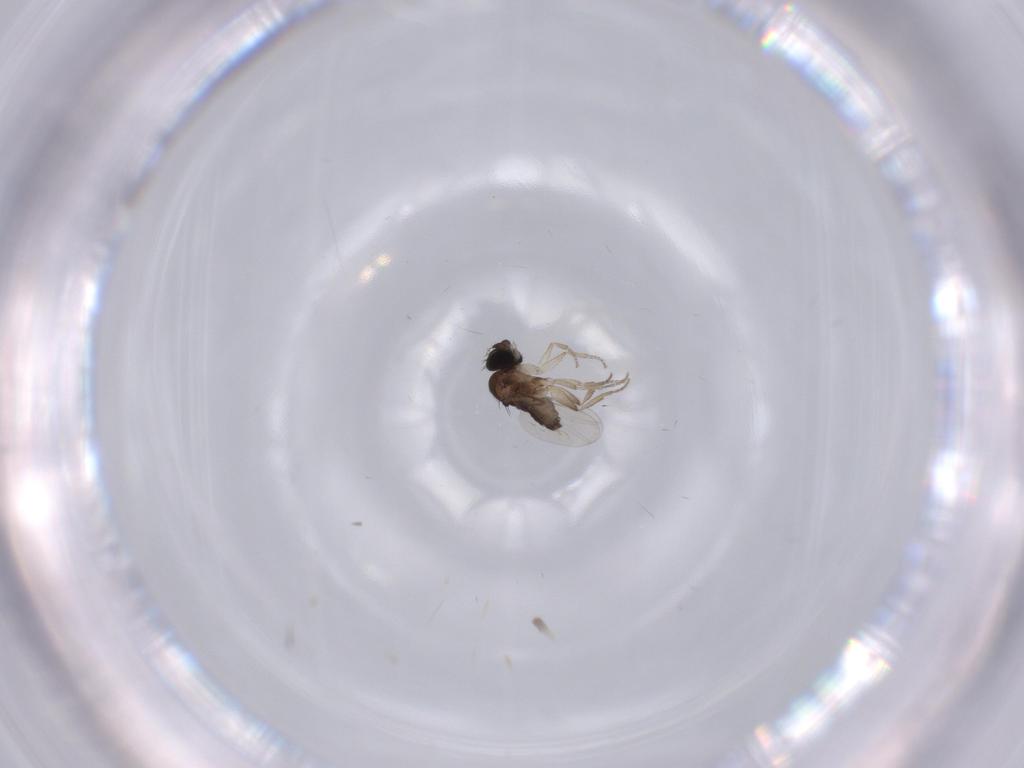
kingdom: Animalia
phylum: Arthropoda
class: Insecta
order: Diptera
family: Phoridae
